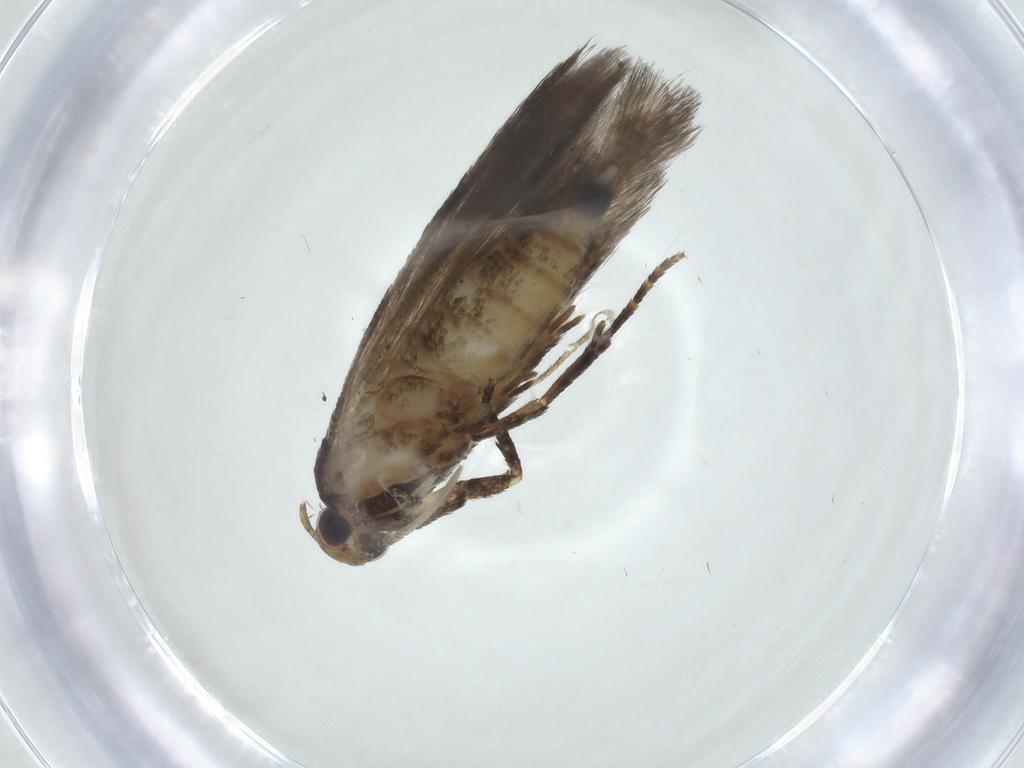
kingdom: Animalia
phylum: Arthropoda
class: Insecta
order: Lepidoptera
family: Gelechiidae
